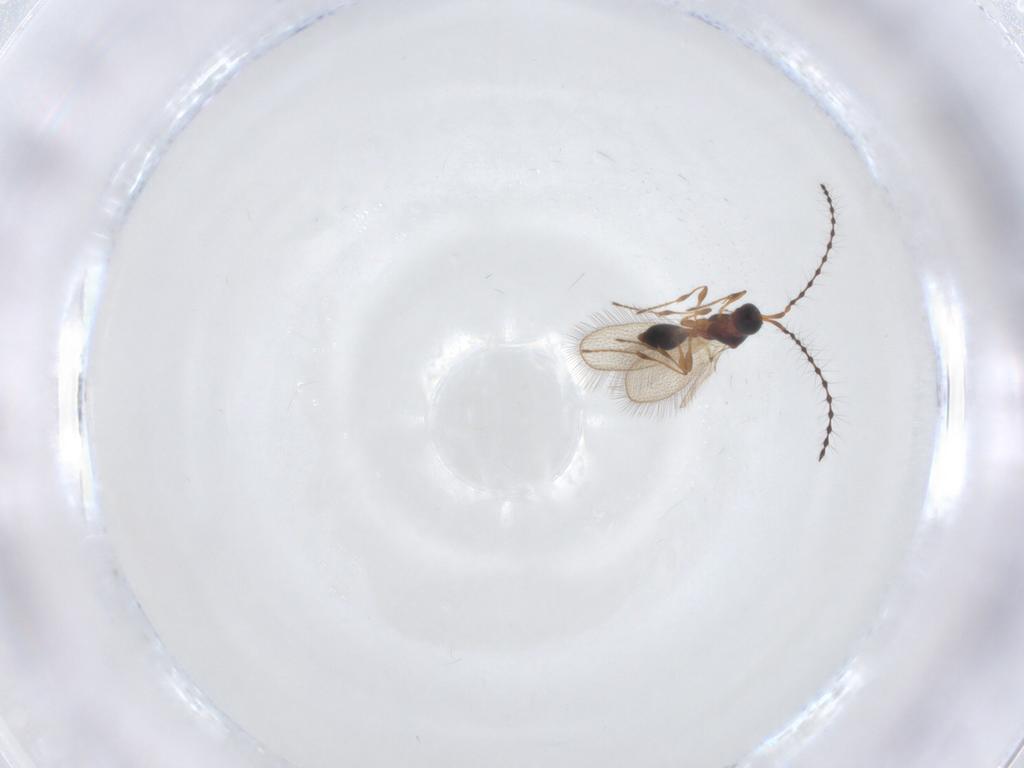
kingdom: Animalia
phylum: Arthropoda
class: Insecta
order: Hymenoptera
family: Diapriidae
